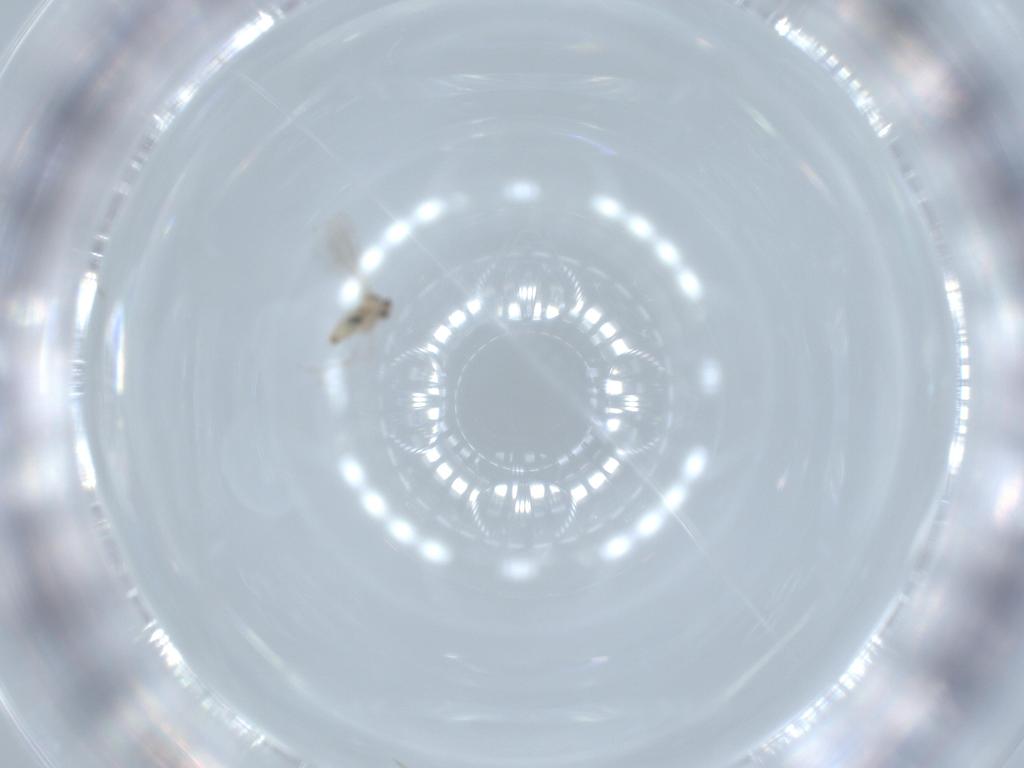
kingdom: Animalia
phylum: Arthropoda
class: Insecta
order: Diptera
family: Cecidomyiidae
